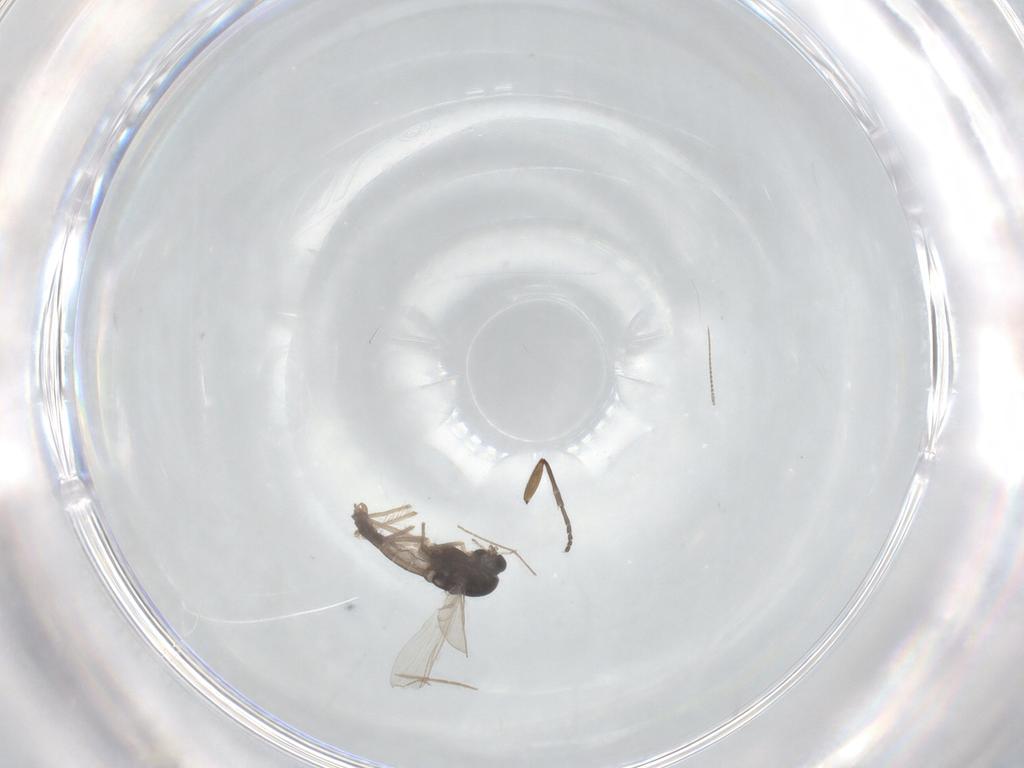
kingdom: Animalia
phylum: Arthropoda
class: Insecta
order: Diptera
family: Chironomidae
